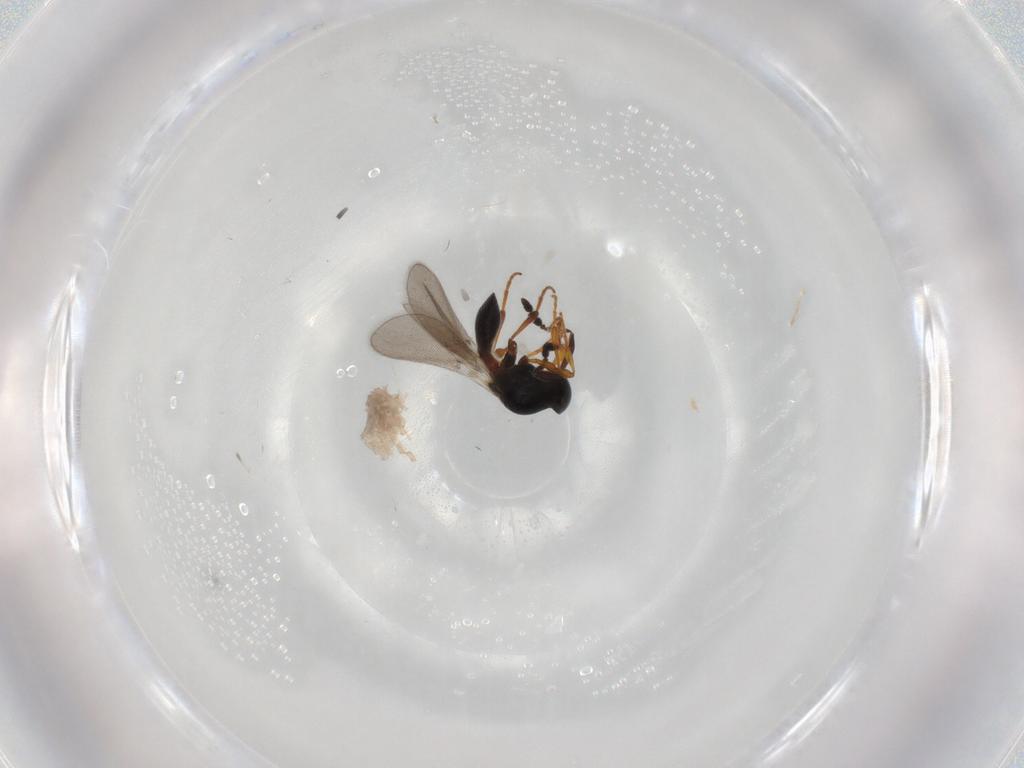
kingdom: Animalia
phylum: Arthropoda
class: Insecta
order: Hymenoptera
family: Platygastridae
